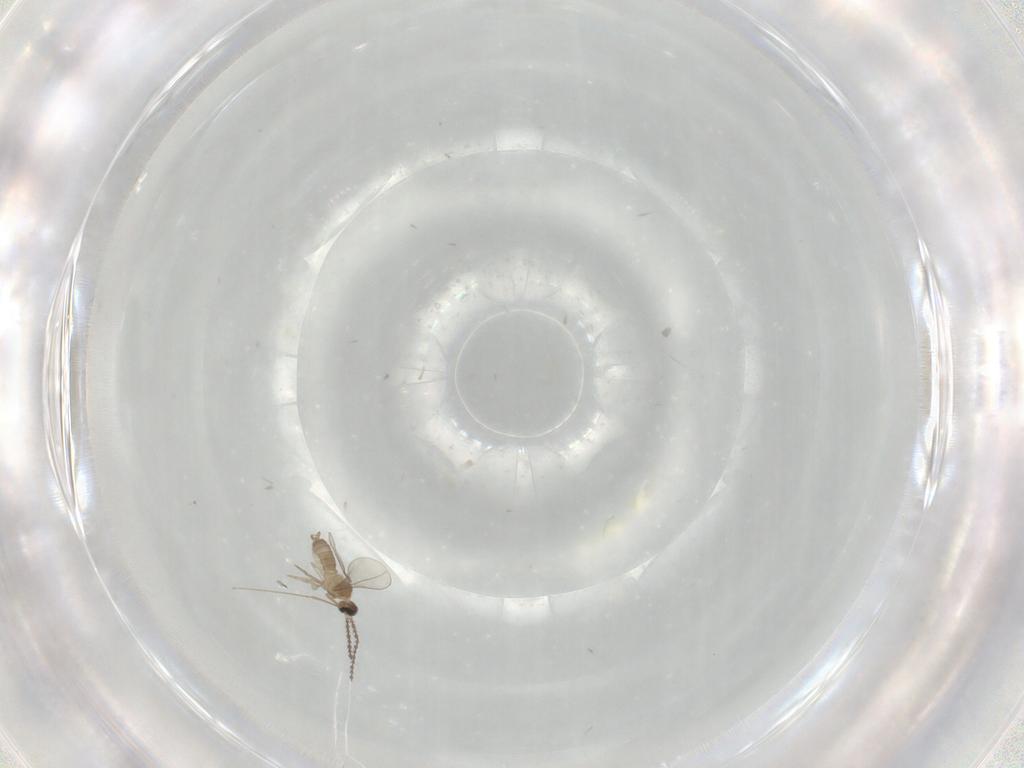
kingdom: Animalia
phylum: Arthropoda
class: Insecta
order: Diptera
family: Cecidomyiidae
